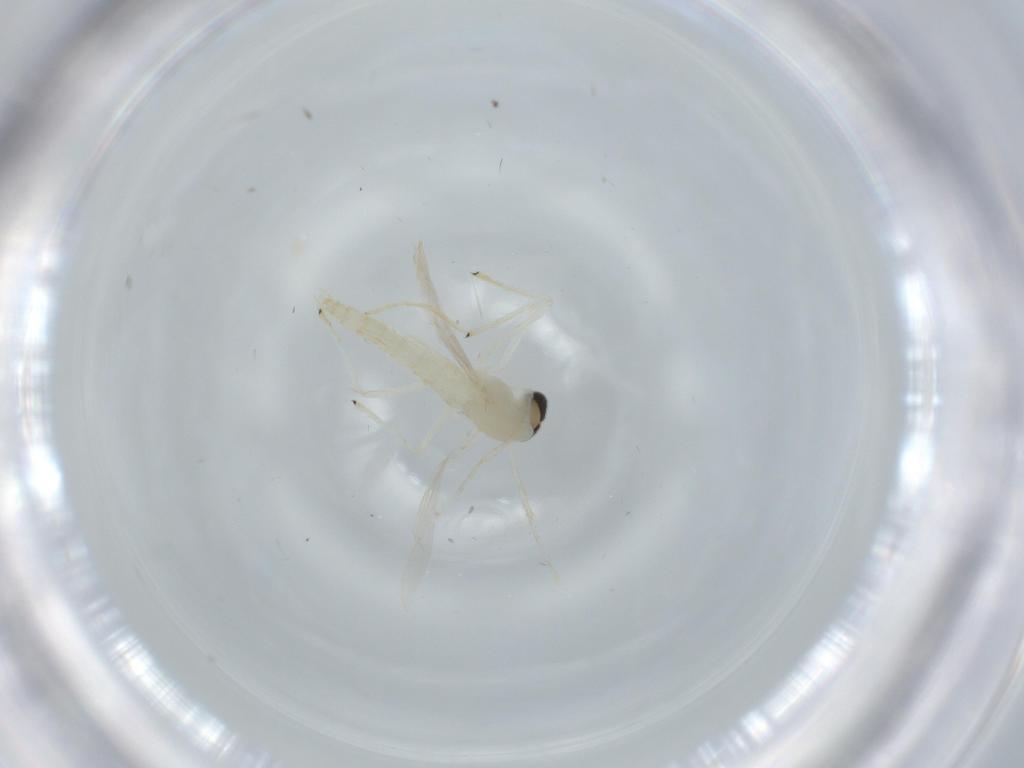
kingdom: Animalia
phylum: Arthropoda
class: Insecta
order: Diptera
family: Chironomidae
